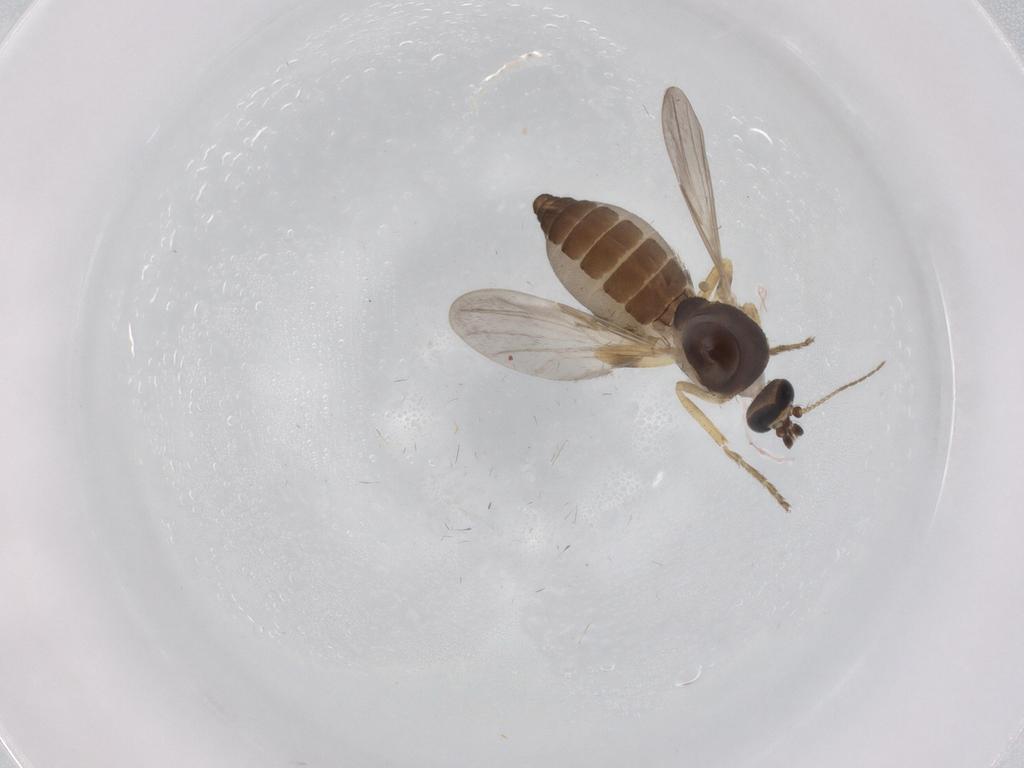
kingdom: Animalia
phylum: Arthropoda
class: Insecta
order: Diptera
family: Ceratopogonidae
